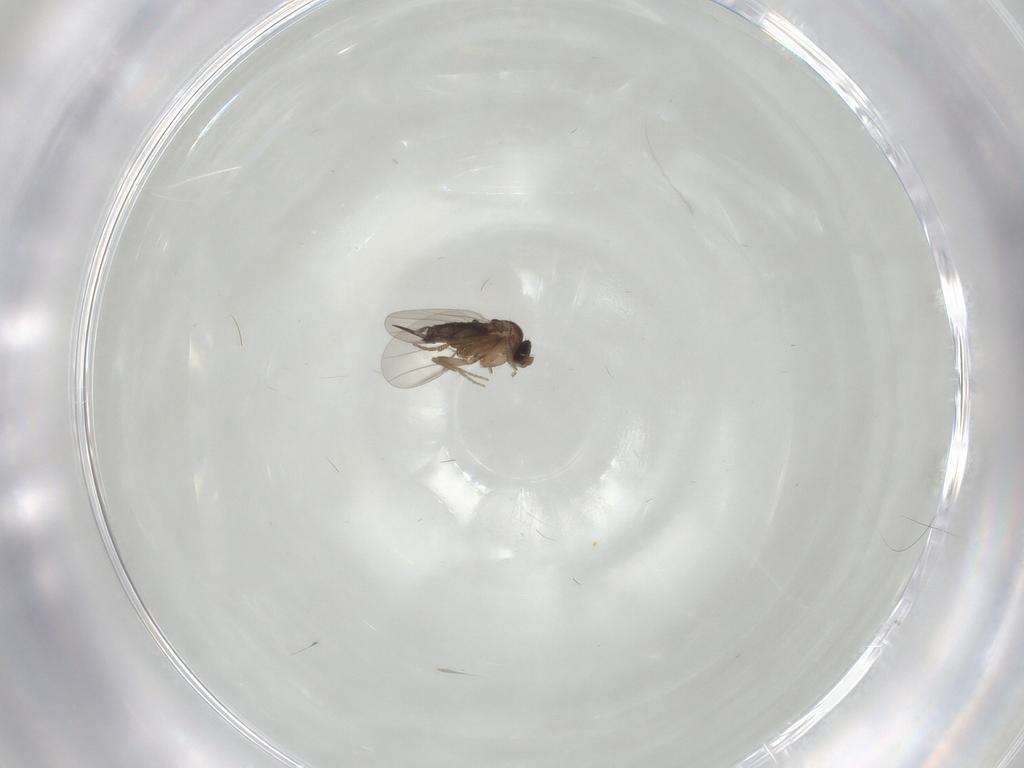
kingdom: Animalia
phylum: Arthropoda
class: Insecta
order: Diptera
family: Phoridae
